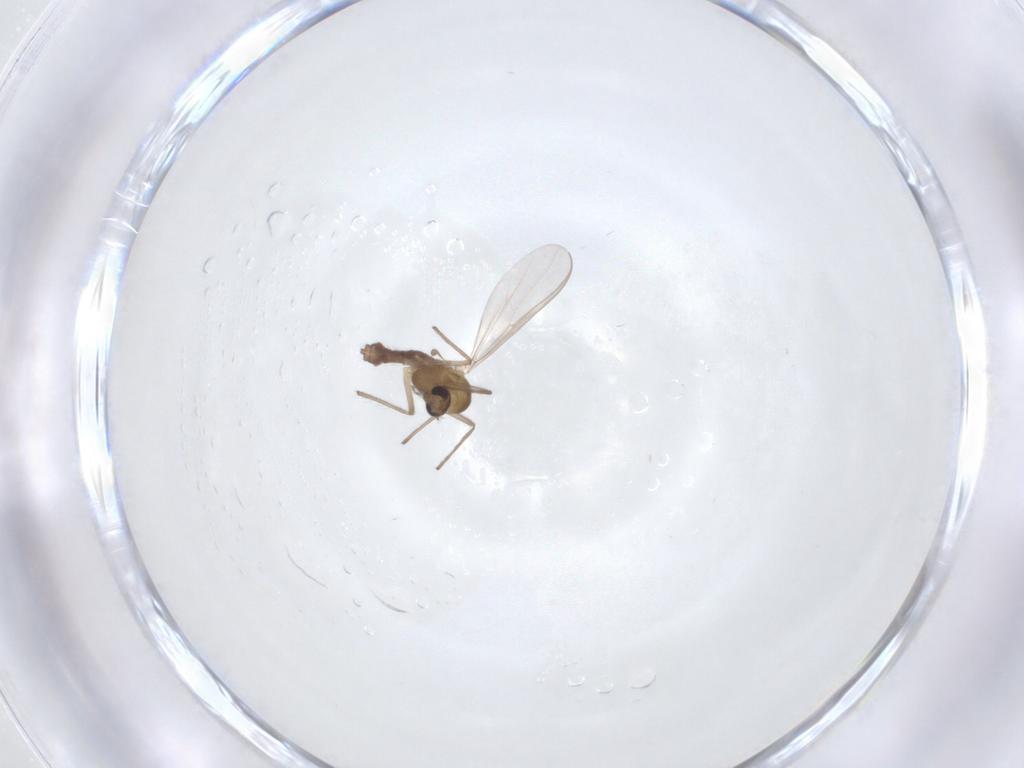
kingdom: Animalia
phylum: Arthropoda
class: Insecta
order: Diptera
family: Chironomidae
